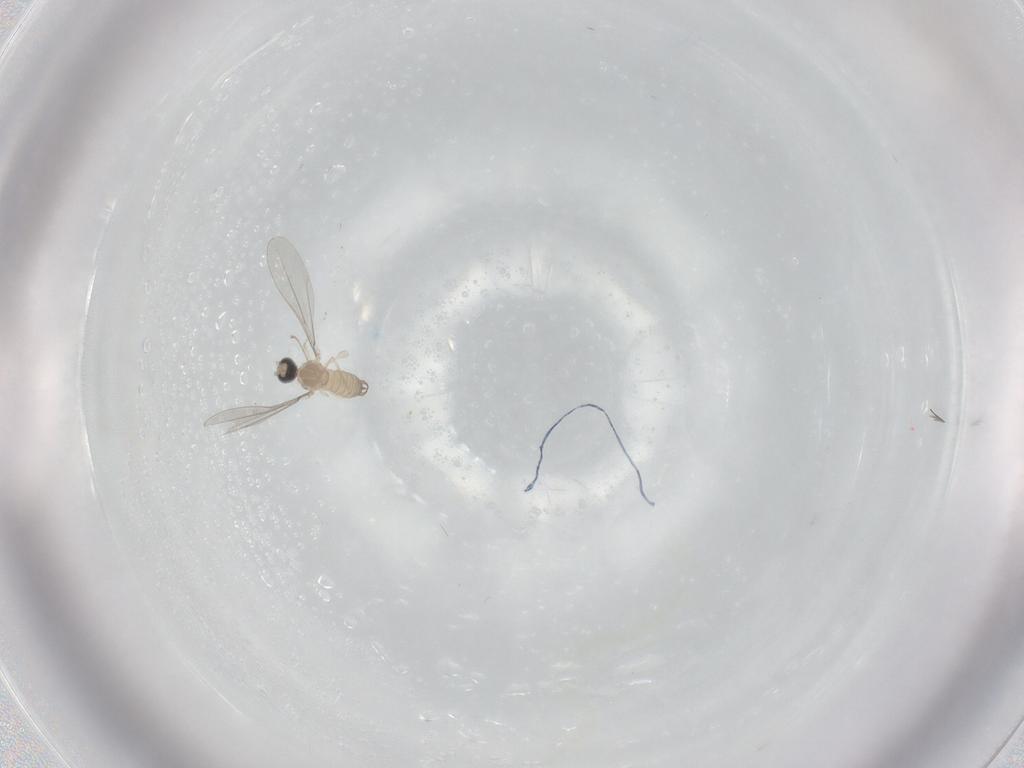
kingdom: Animalia
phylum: Arthropoda
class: Insecta
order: Diptera
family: Cecidomyiidae
